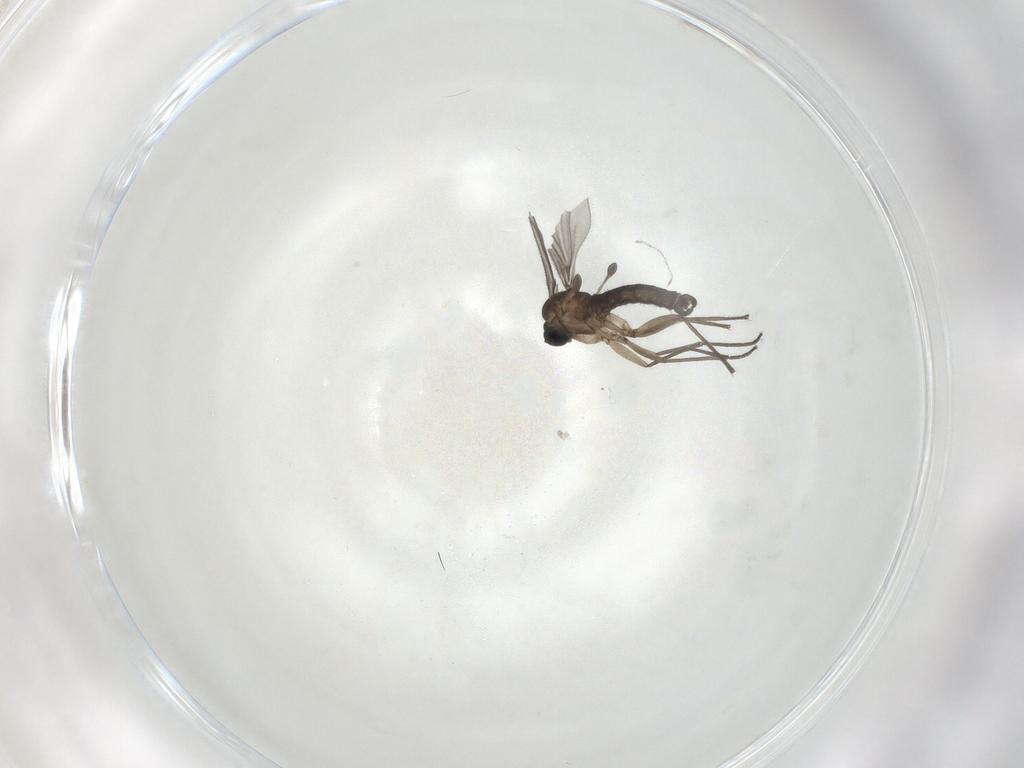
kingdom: Animalia
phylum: Arthropoda
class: Insecta
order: Diptera
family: Sciaridae
